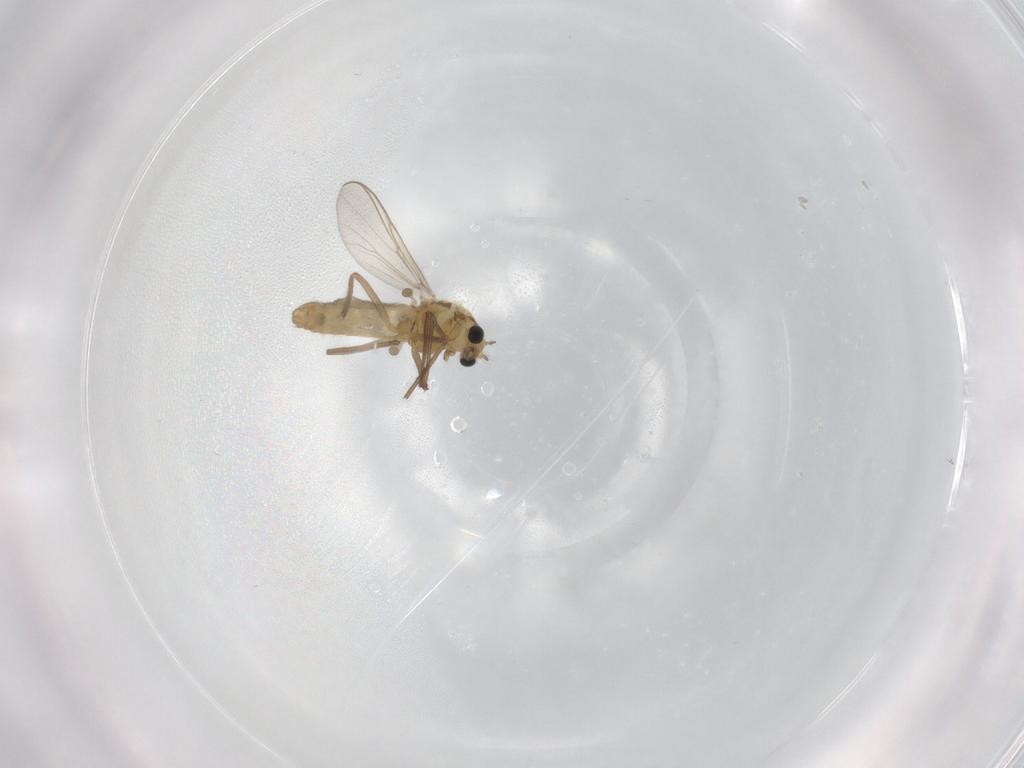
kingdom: Animalia
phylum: Arthropoda
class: Insecta
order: Diptera
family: Chironomidae
